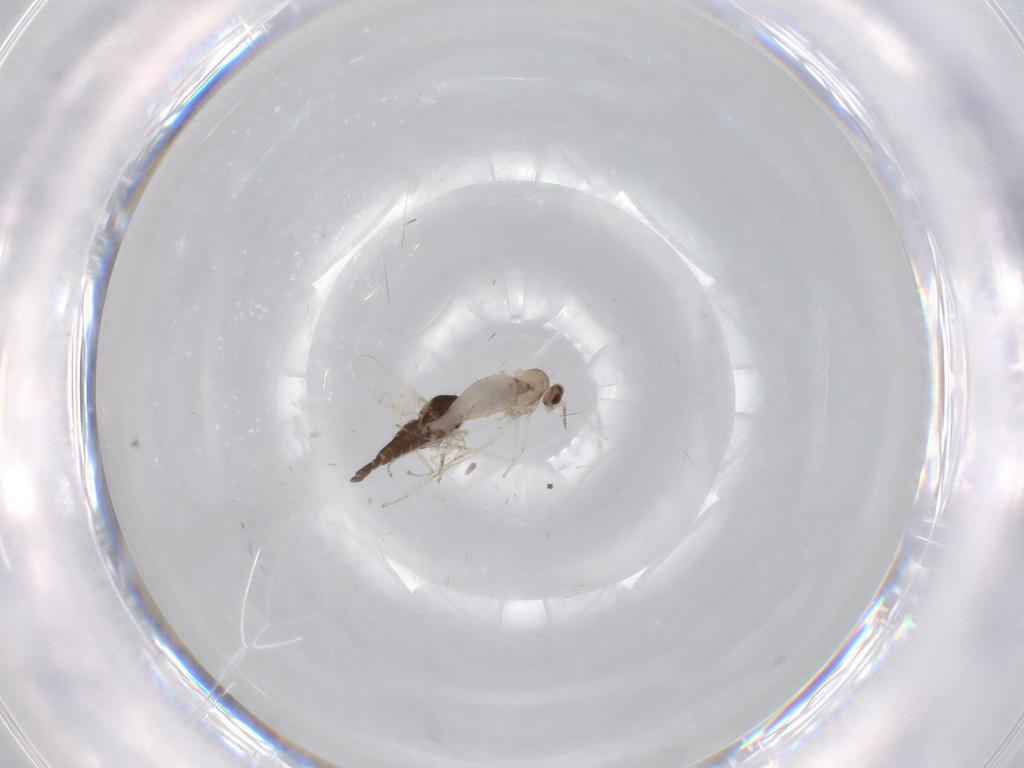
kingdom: Animalia
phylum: Arthropoda
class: Insecta
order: Diptera
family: Chironomidae
